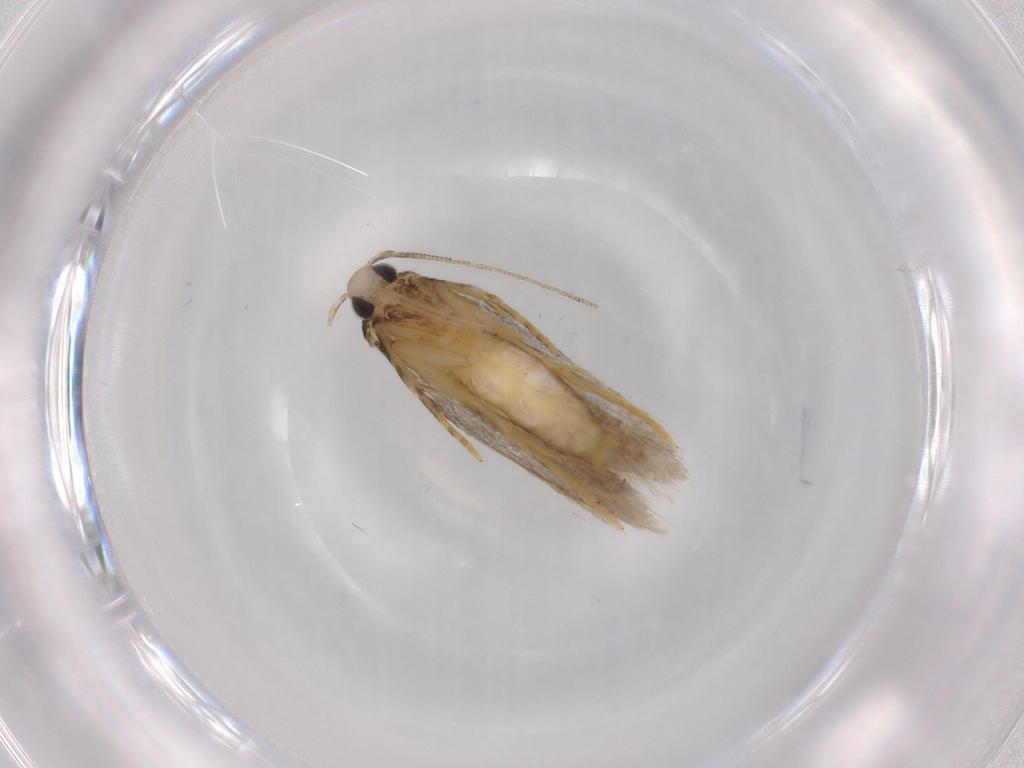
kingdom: Animalia
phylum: Arthropoda
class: Insecta
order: Lepidoptera
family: Autostichidae
